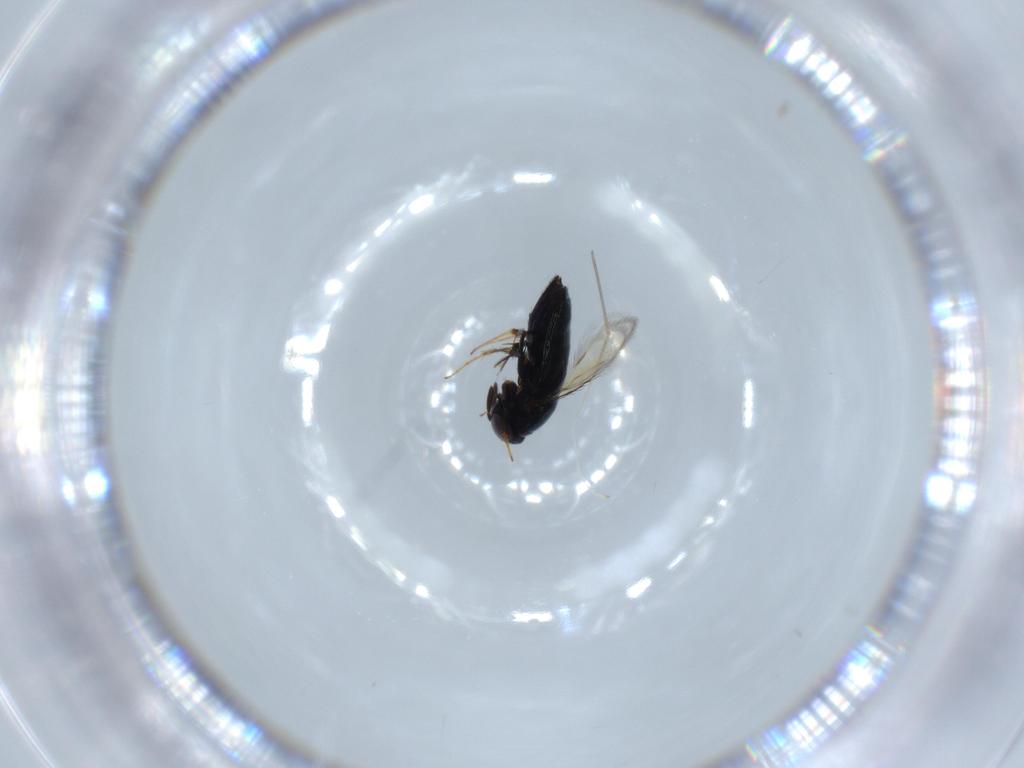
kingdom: Animalia
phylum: Arthropoda
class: Insecta
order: Hymenoptera
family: Signiphoridae
